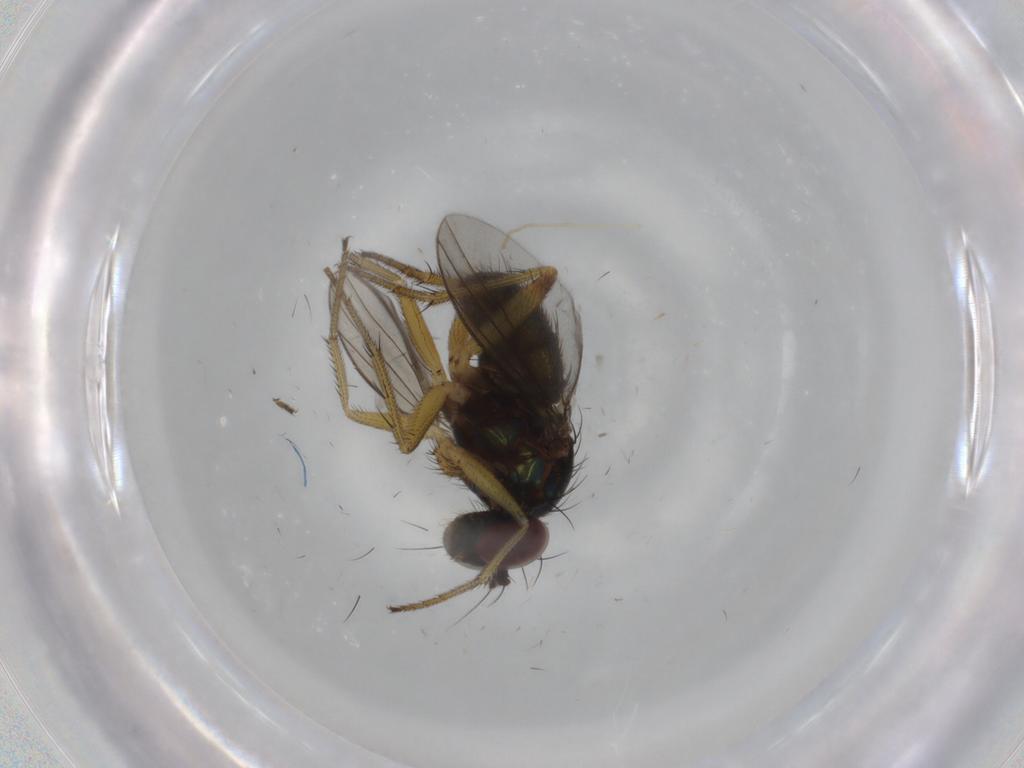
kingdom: Animalia
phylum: Arthropoda
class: Insecta
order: Diptera
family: Dolichopodidae
